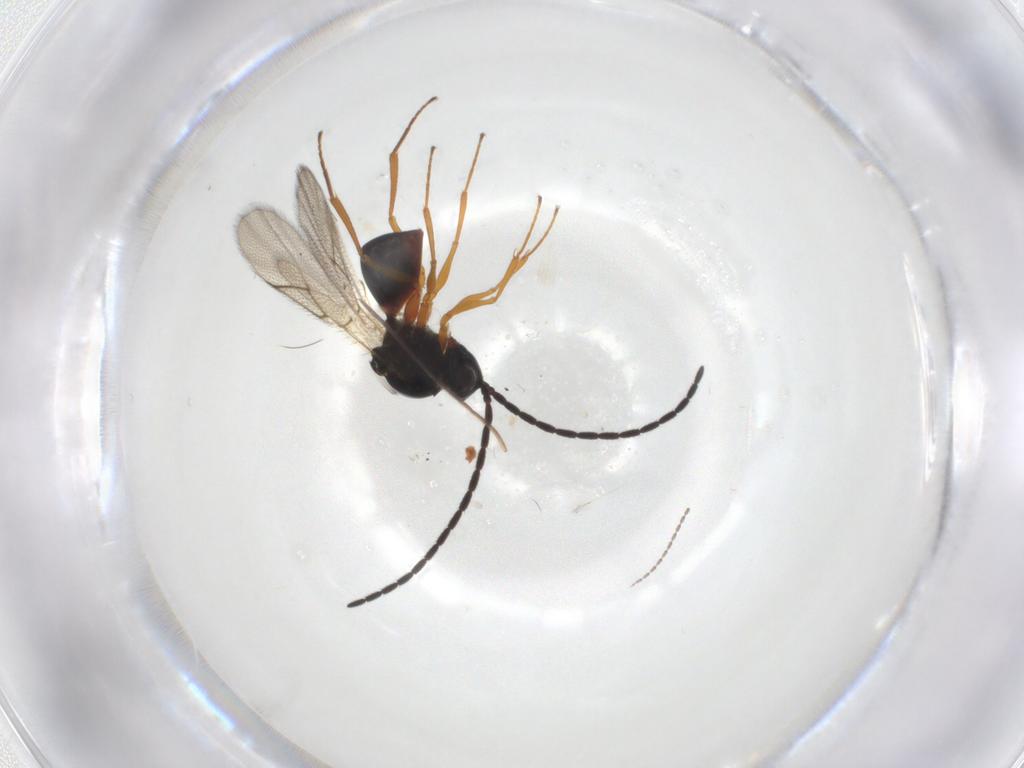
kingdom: Animalia
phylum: Arthropoda
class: Insecta
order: Hymenoptera
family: Figitidae
